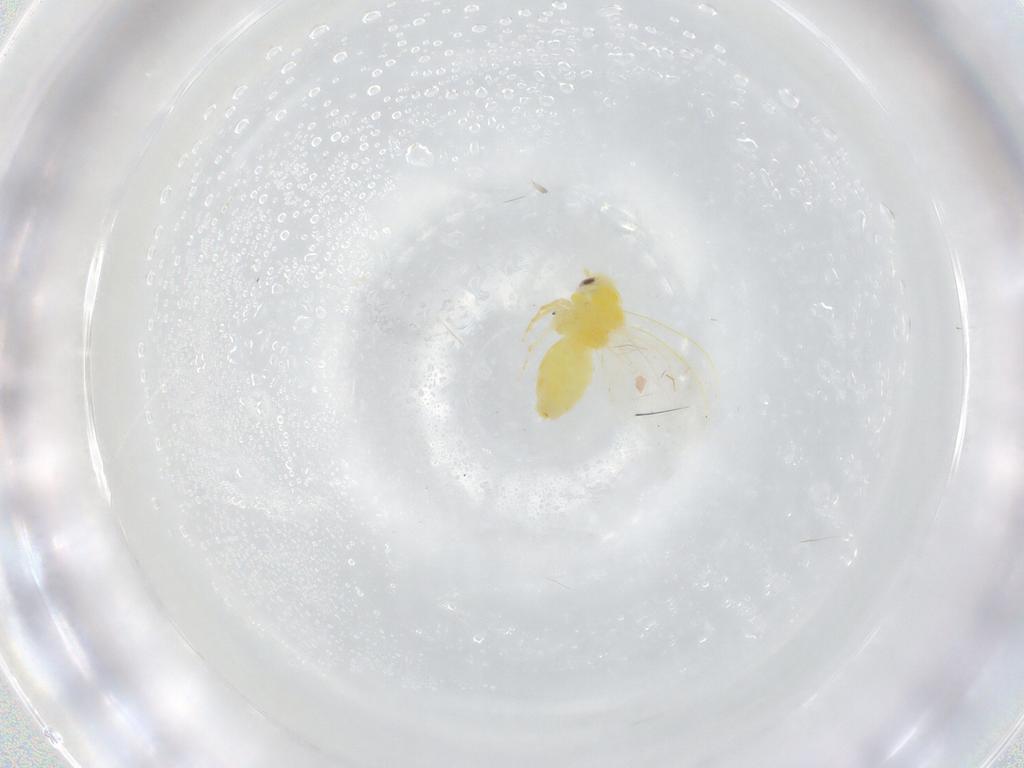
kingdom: Animalia
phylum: Arthropoda
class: Insecta
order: Hemiptera
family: Aleyrodidae
